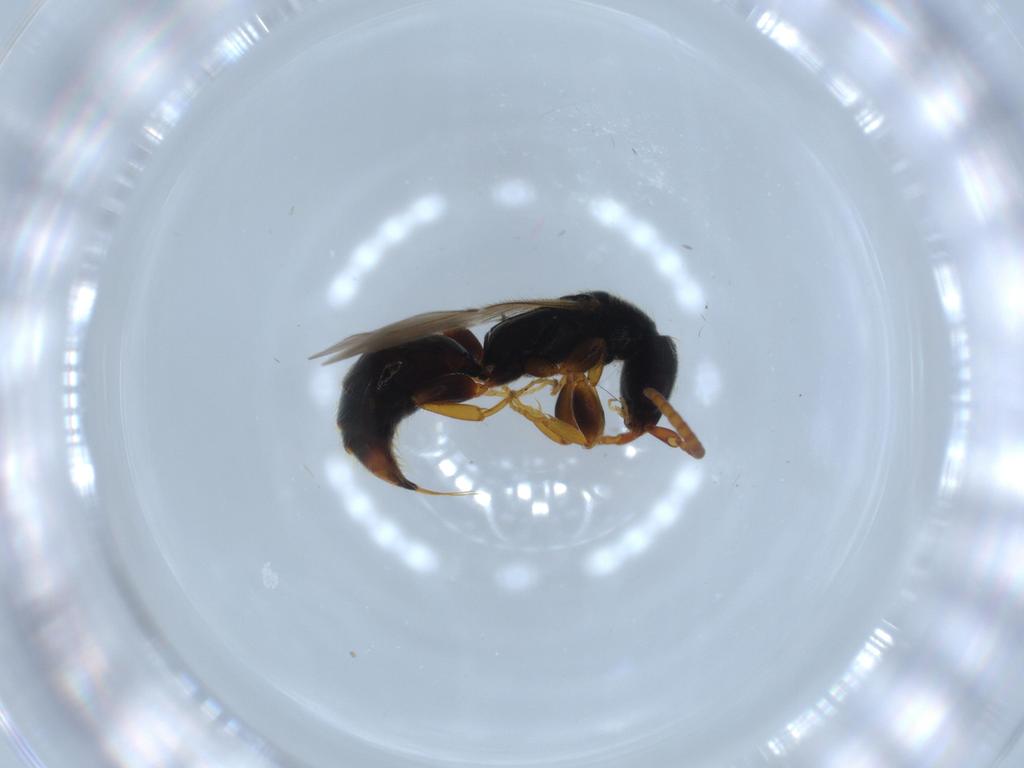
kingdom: Animalia
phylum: Arthropoda
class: Insecta
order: Hymenoptera
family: Bethylidae
